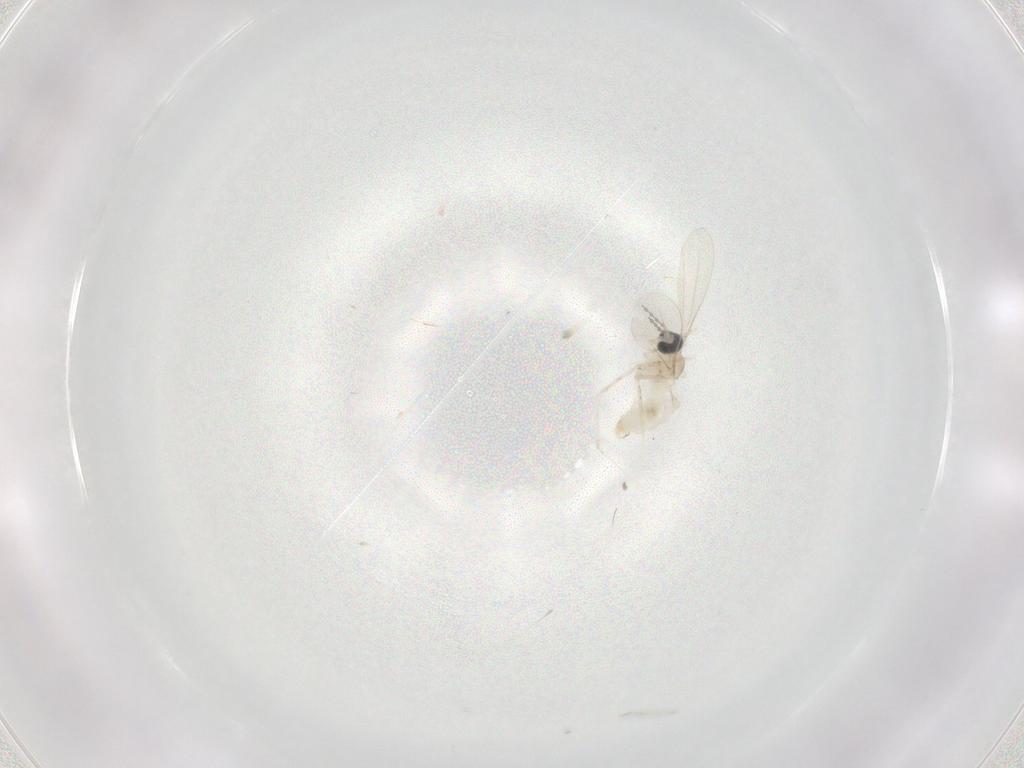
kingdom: Animalia
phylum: Arthropoda
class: Insecta
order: Diptera
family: Cecidomyiidae
